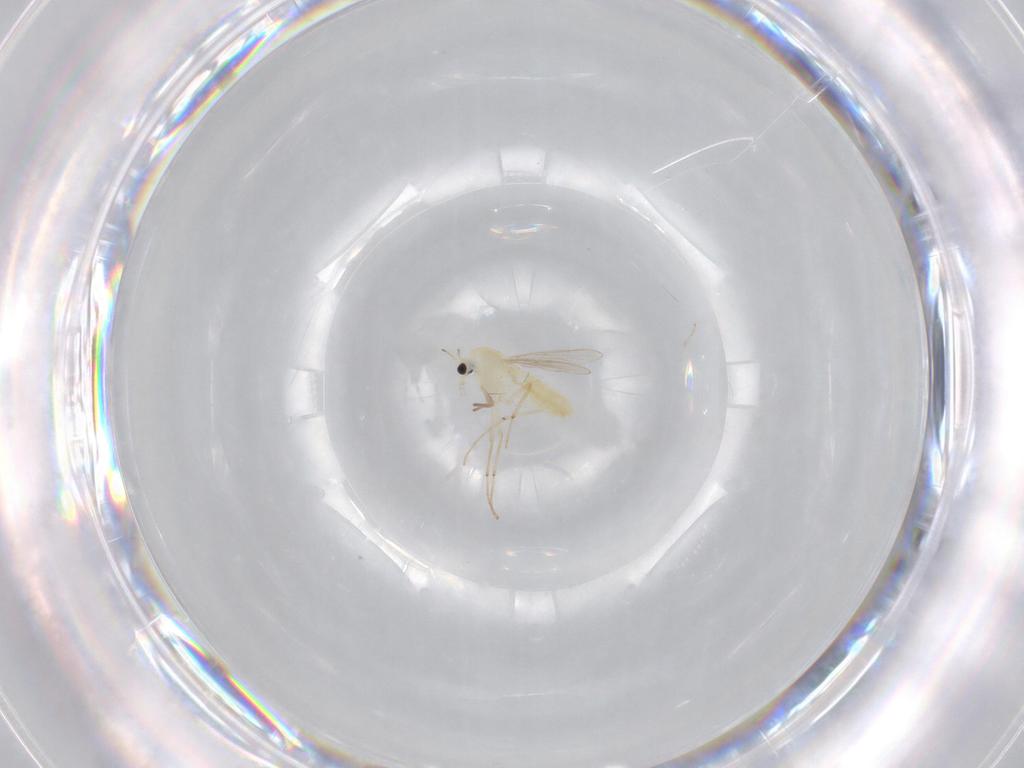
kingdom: Animalia
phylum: Arthropoda
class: Insecta
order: Diptera
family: Chironomidae
